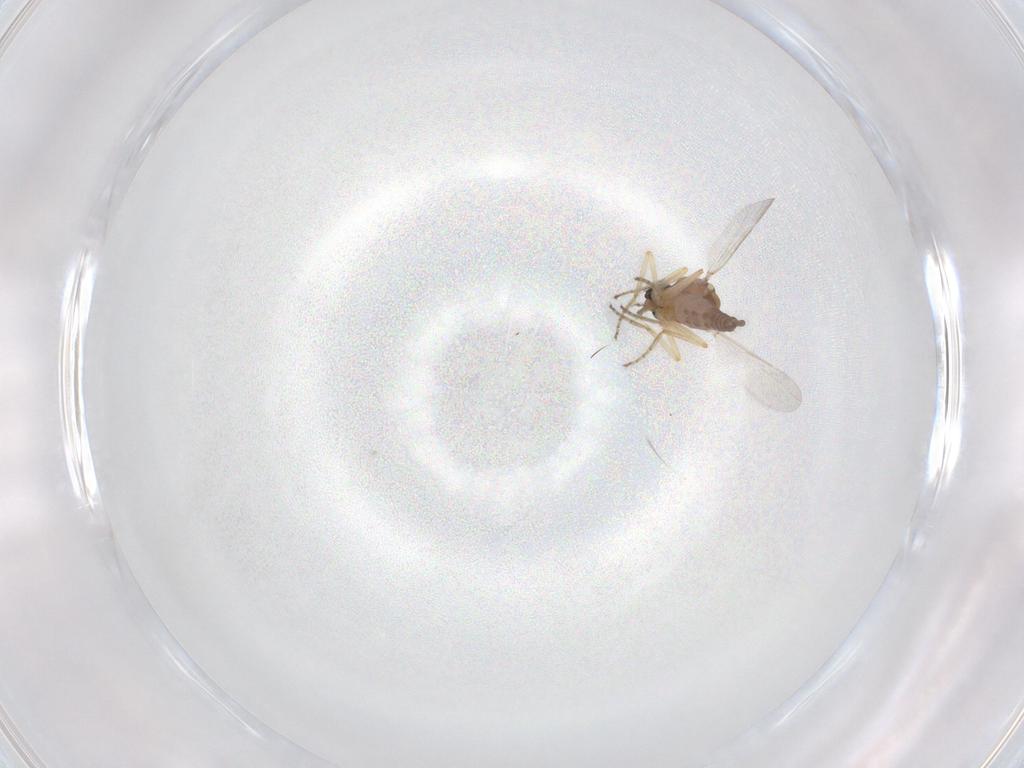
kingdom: Animalia
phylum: Arthropoda
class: Insecta
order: Diptera
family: Ceratopogonidae
